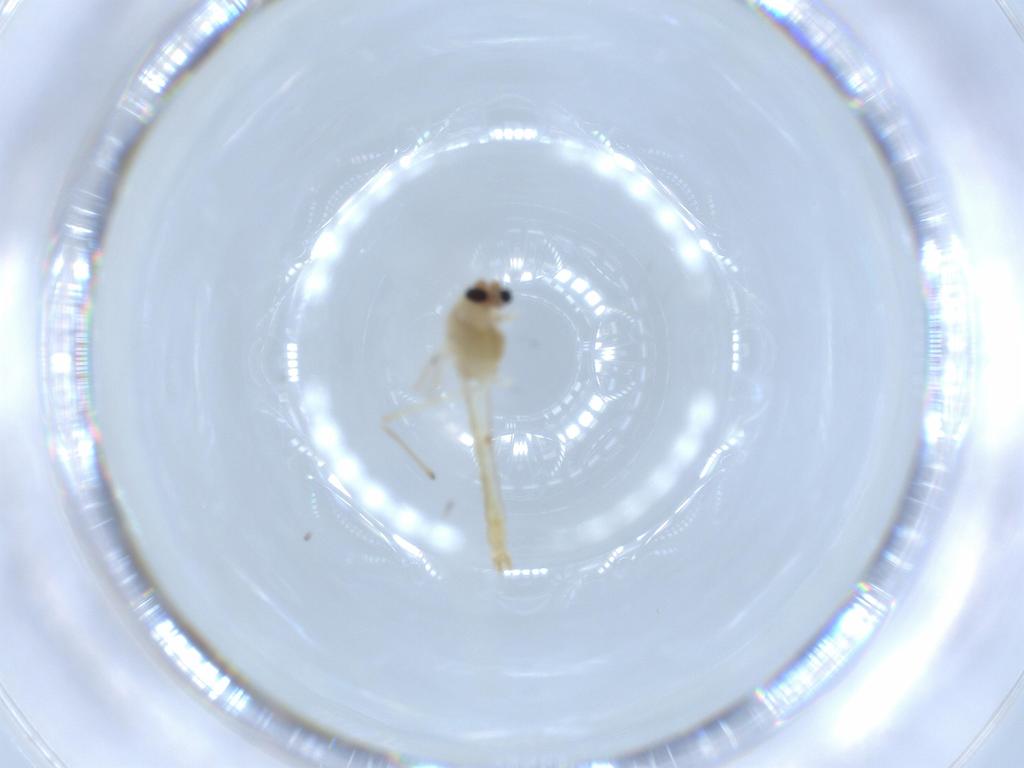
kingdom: Animalia
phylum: Arthropoda
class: Insecta
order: Diptera
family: Chironomidae
